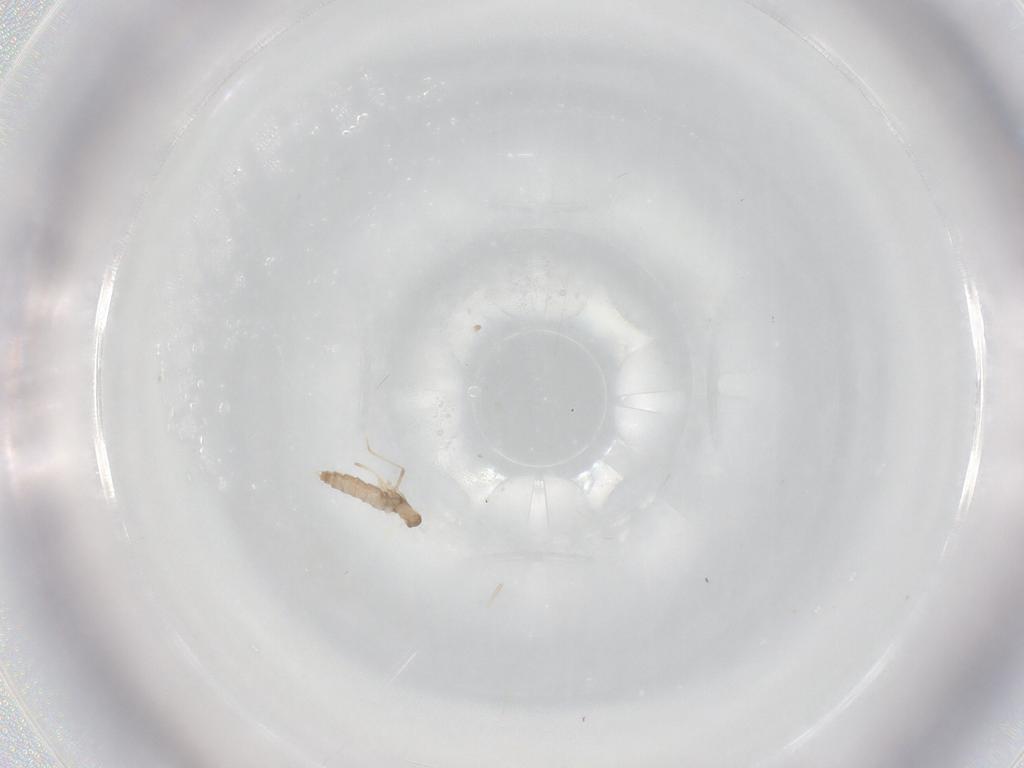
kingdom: Animalia
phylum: Arthropoda
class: Insecta
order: Diptera
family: Cecidomyiidae
